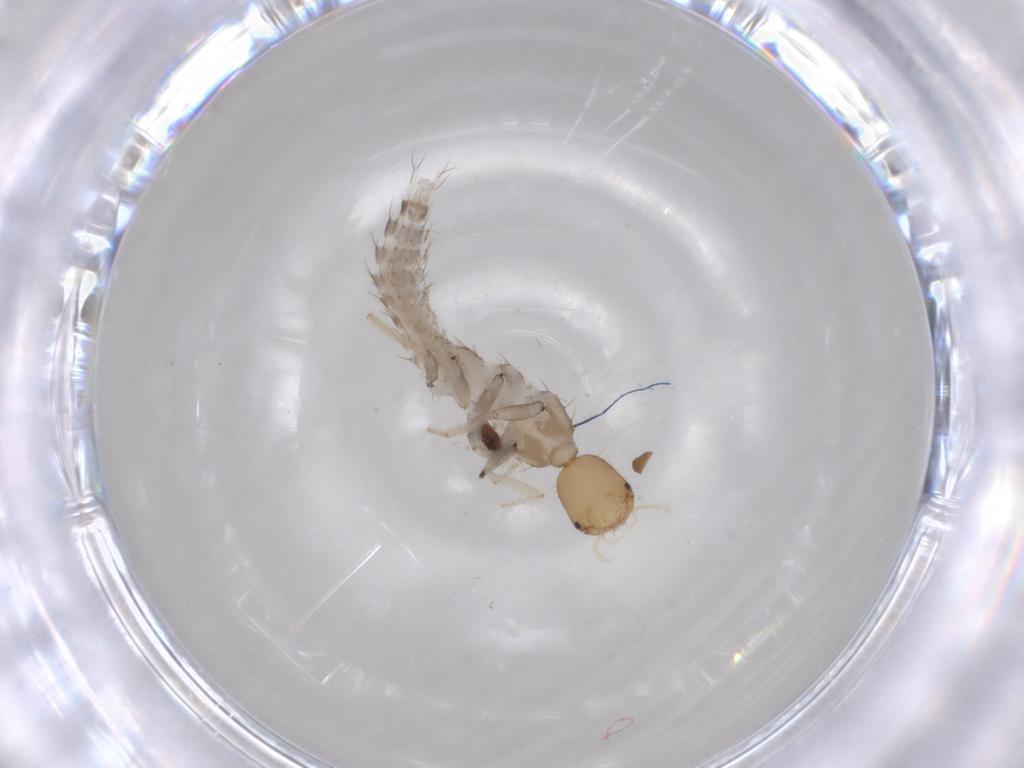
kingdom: Animalia
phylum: Arthropoda
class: Insecta
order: Coleoptera
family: Staphylinidae
